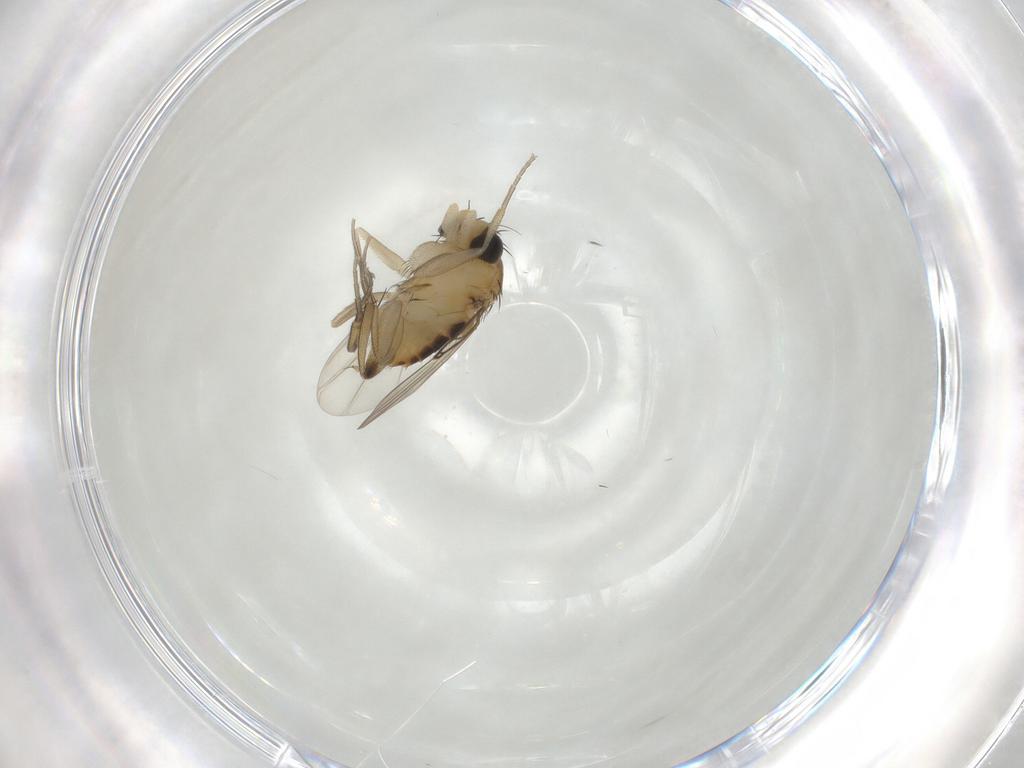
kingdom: Animalia
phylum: Arthropoda
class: Insecta
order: Diptera
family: Phoridae
